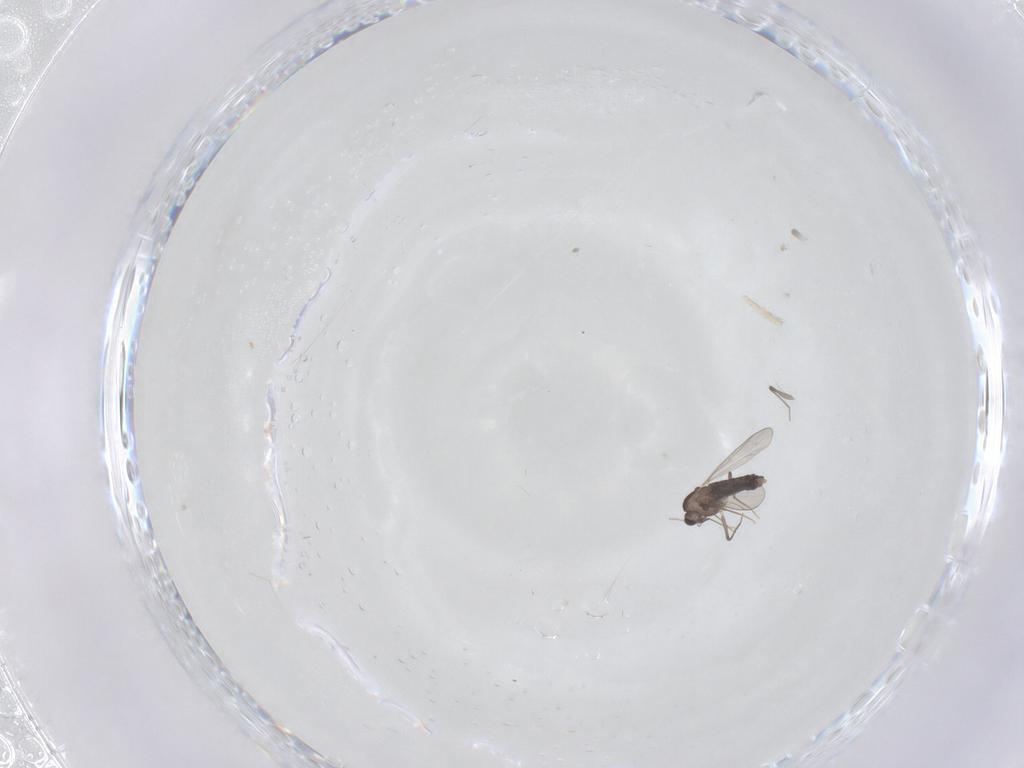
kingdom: Animalia
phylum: Arthropoda
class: Insecta
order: Diptera
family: Chironomidae
